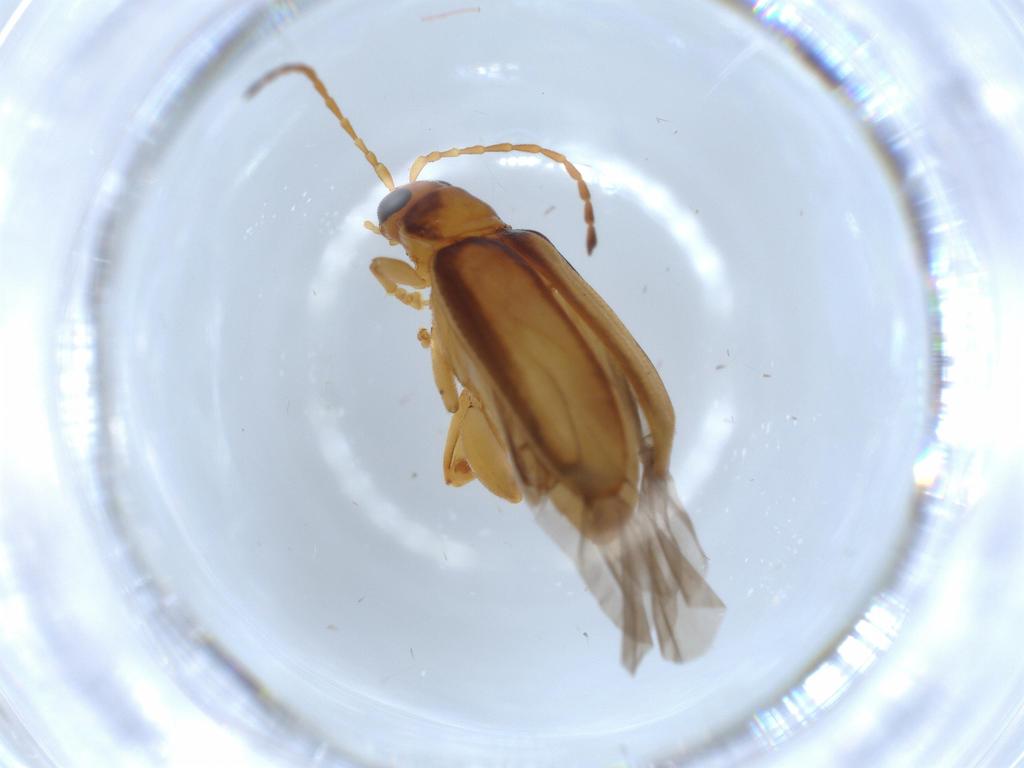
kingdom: Animalia
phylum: Arthropoda
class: Insecta
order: Coleoptera
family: Chrysomelidae
